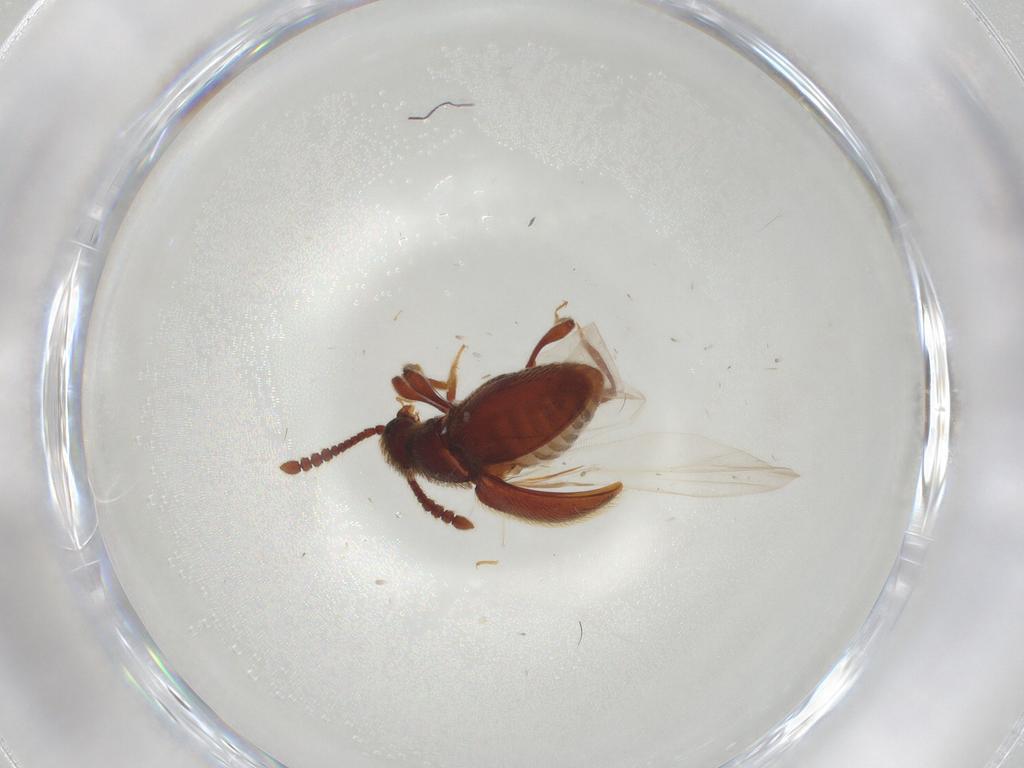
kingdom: Animalia
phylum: Arthropoda
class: Insecta
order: Coleoptera
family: Staphylinidae
